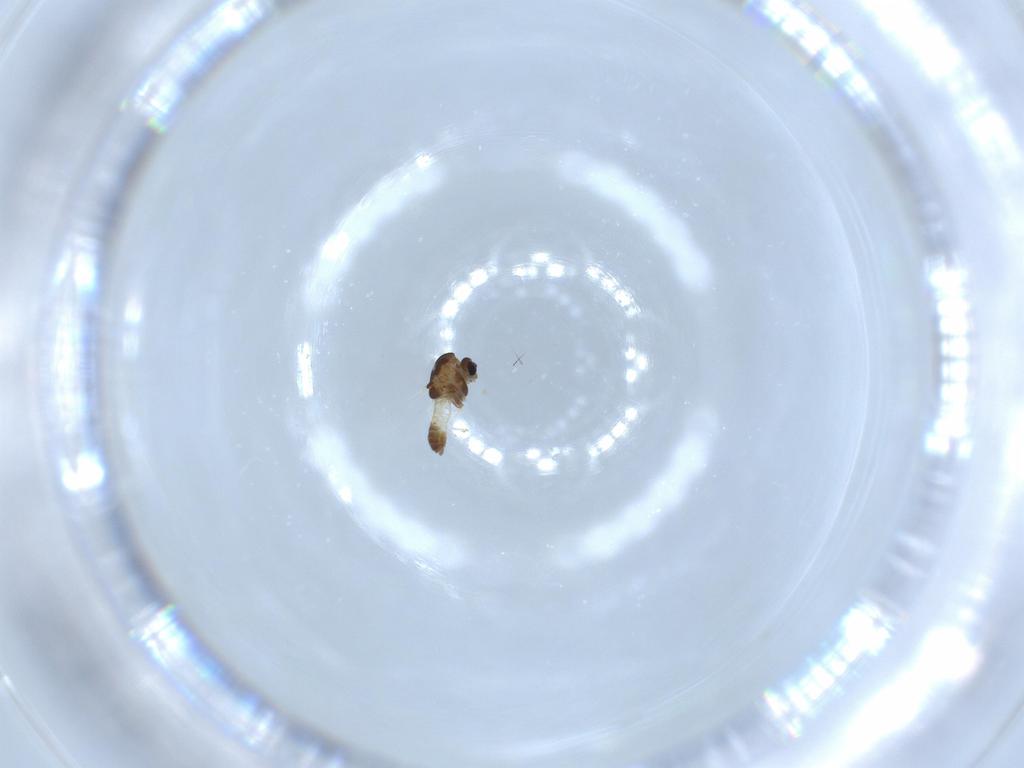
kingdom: Animalia
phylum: Arthropoda
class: Insecta
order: Diptera
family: Chironomidae
